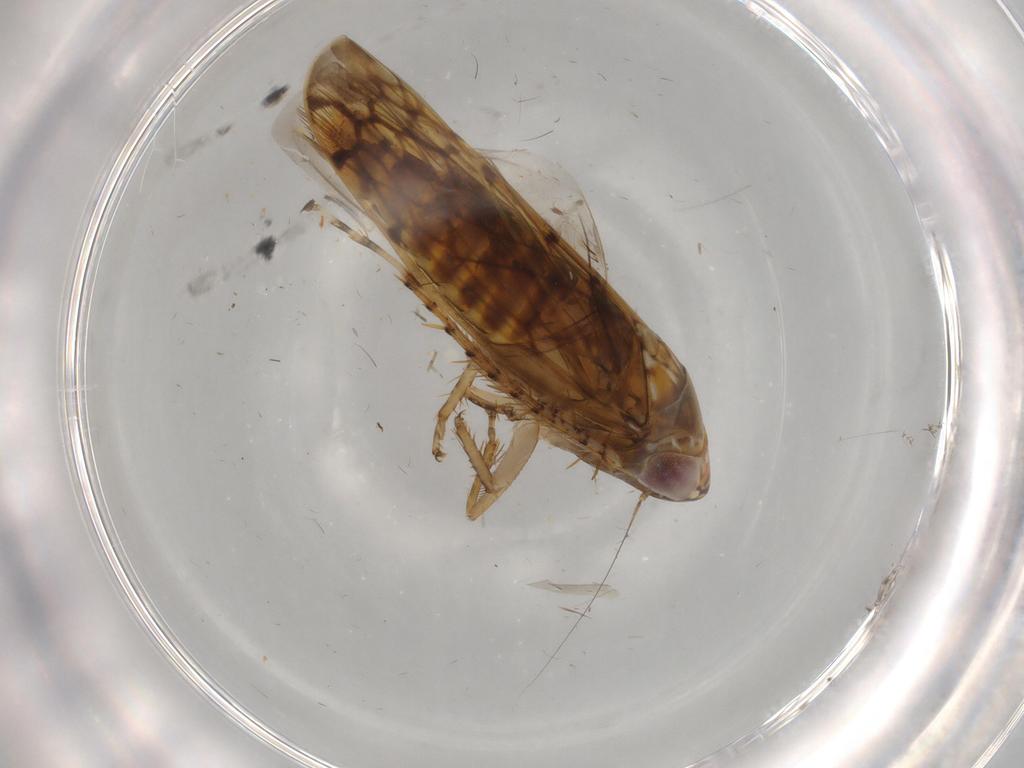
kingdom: Animalia
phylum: Arthropoda
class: Insecta
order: Hemiptera
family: Cicadellidae
